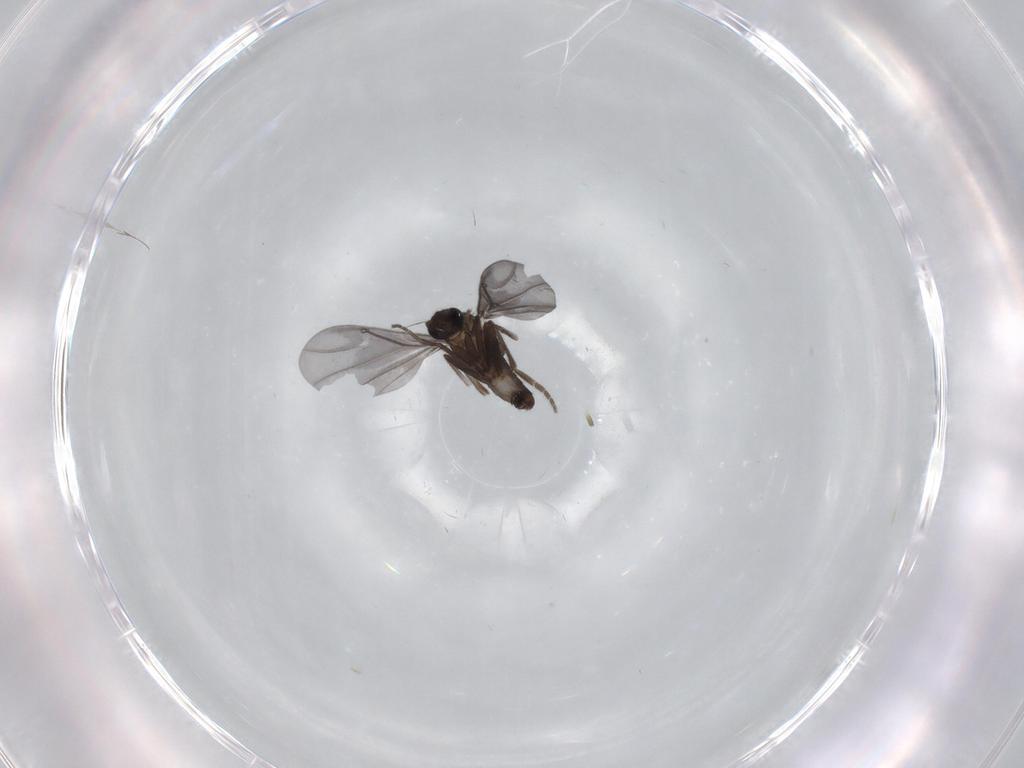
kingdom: Animalia
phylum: Arthropoda
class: Insecta
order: Diptera
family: Phoridae
